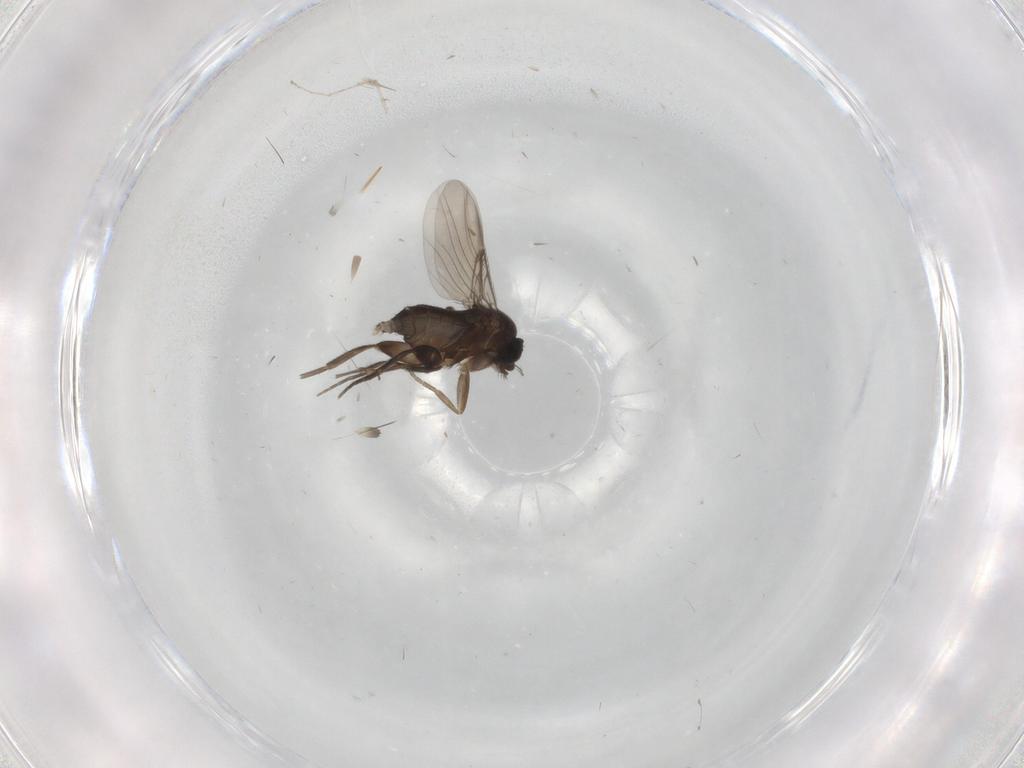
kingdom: Animalia
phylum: Arthropoda
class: Insecta
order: Diptera
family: Phoridae
